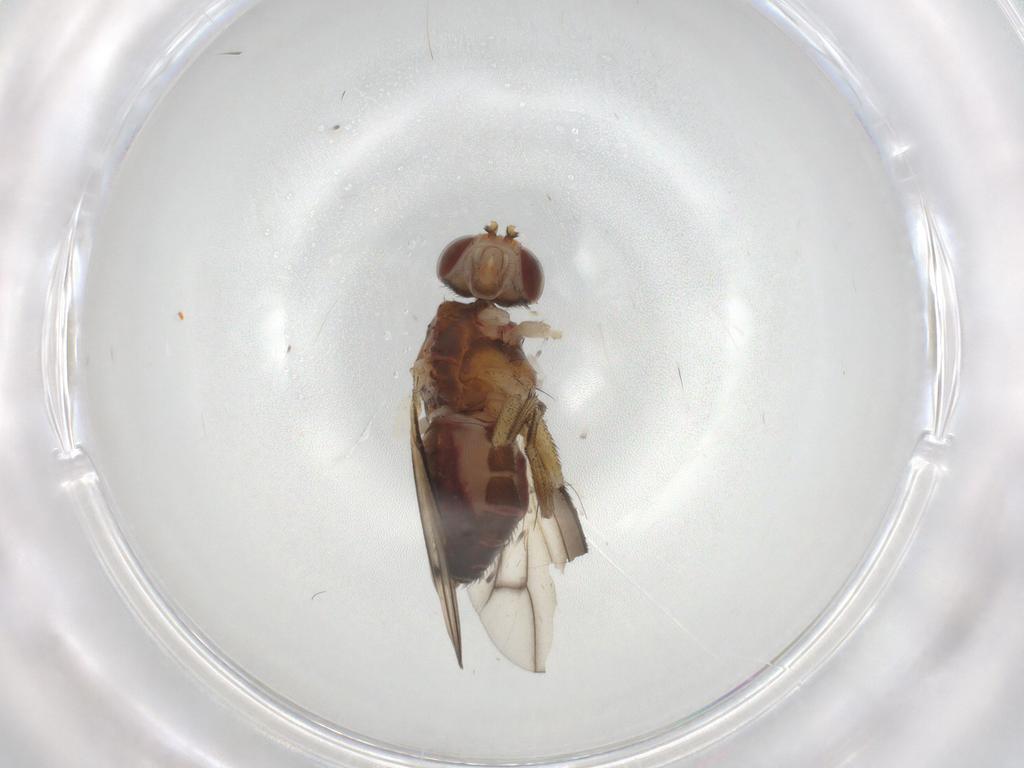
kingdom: Animalia
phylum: Arthropoda
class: Insecta
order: Diptera
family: Heleomyzidae
